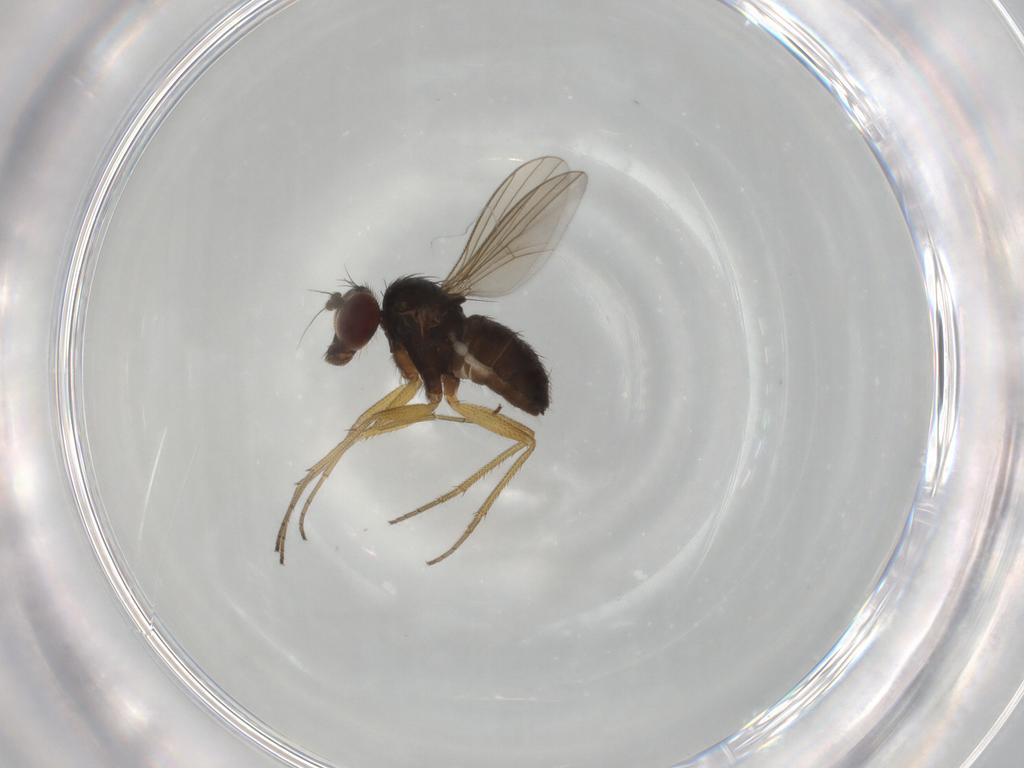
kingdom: Animalia
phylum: Arthropoda
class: Insecta
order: Diptera
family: Dolichopodidae
